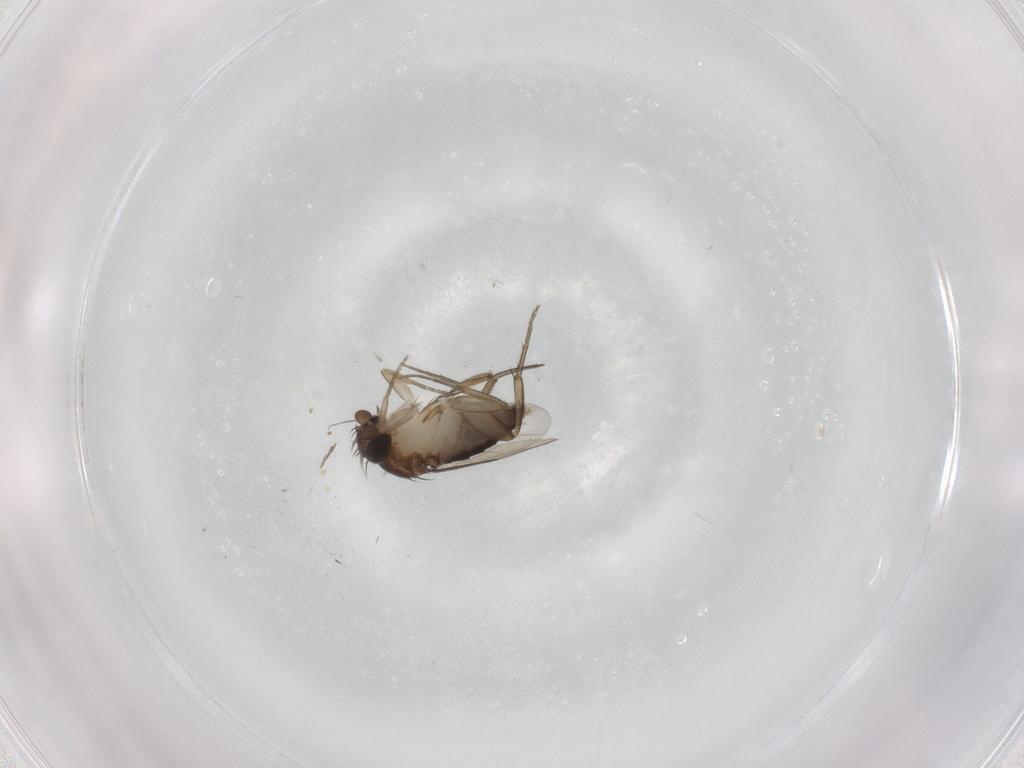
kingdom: Animalia
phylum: Arthropoda
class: Insecta
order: Diptera
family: Phoridae
